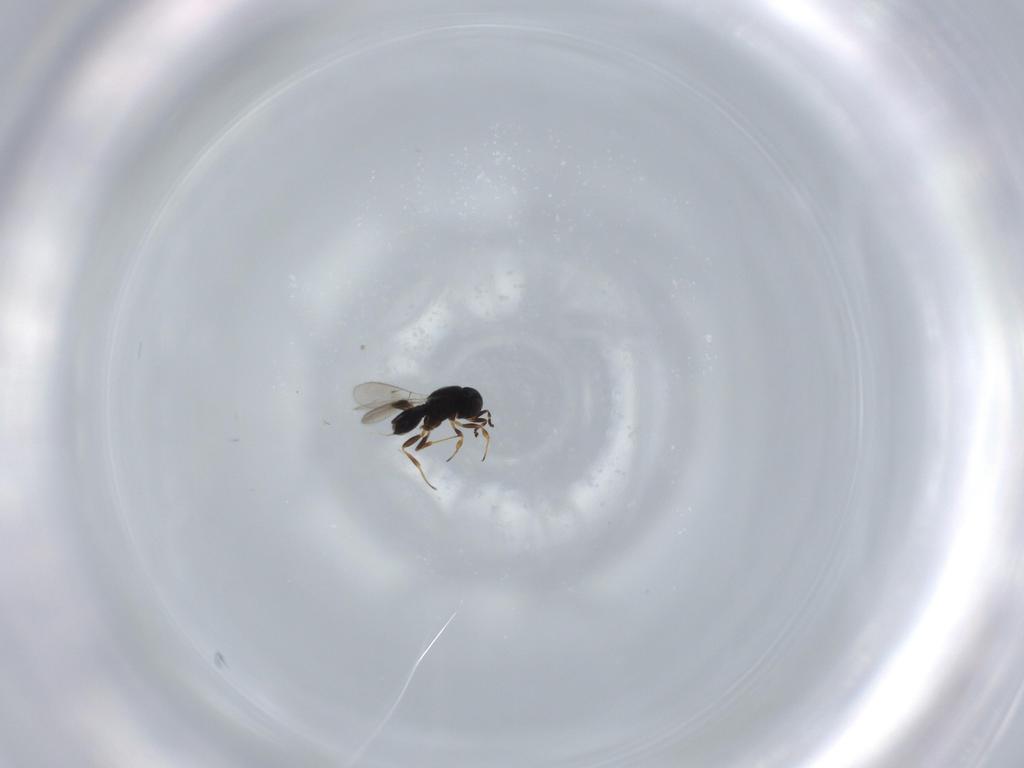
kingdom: Animalia
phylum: Arthropoda
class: Insecta
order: Hymenoptera
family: Scelionidae
